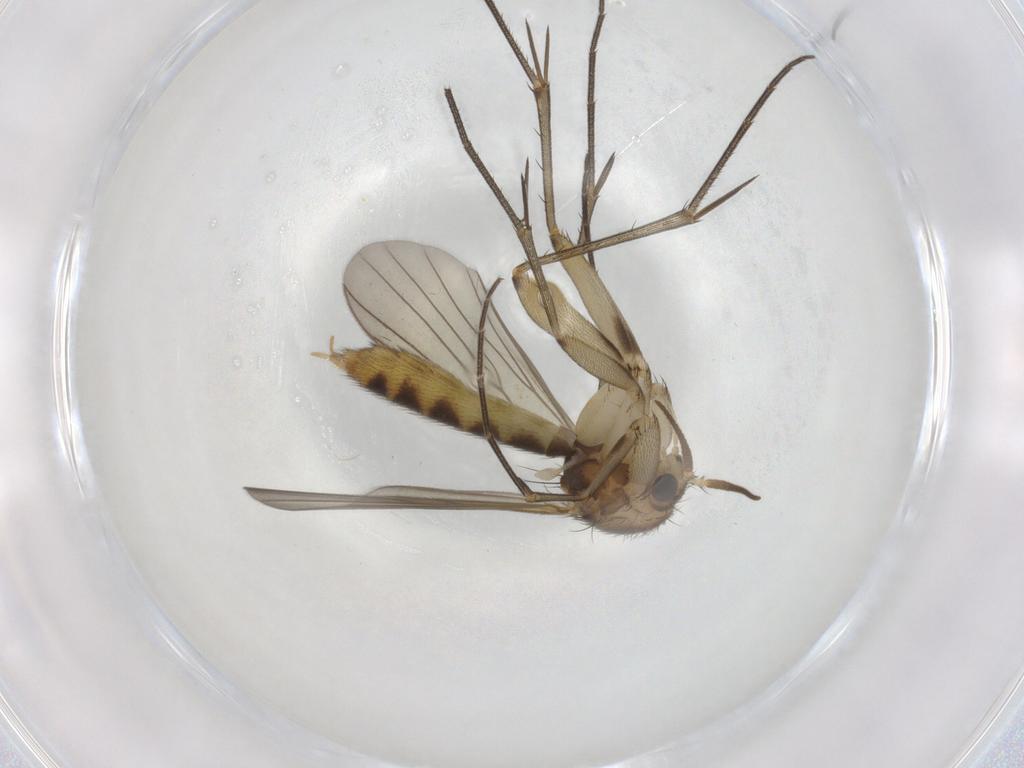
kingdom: Animalia
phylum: Arthropoda
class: Insecta
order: Diptera
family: Mycetophilidae
